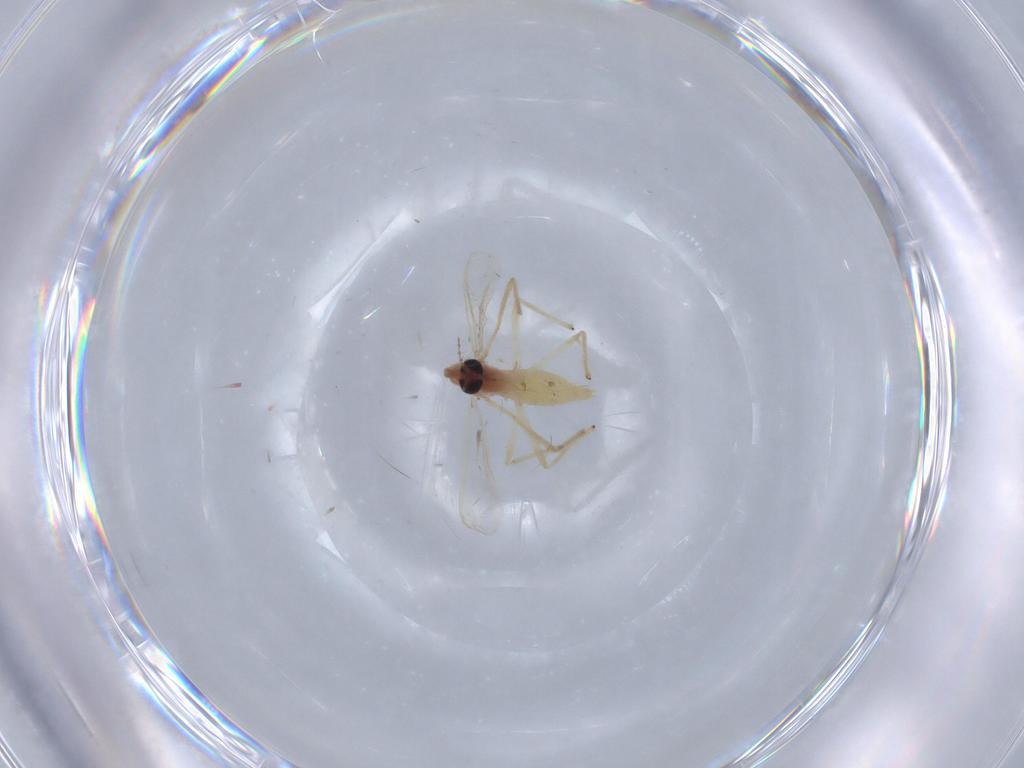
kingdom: Animalia
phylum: Arthropoda
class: Insecta
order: Diptera
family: Chironomidae
